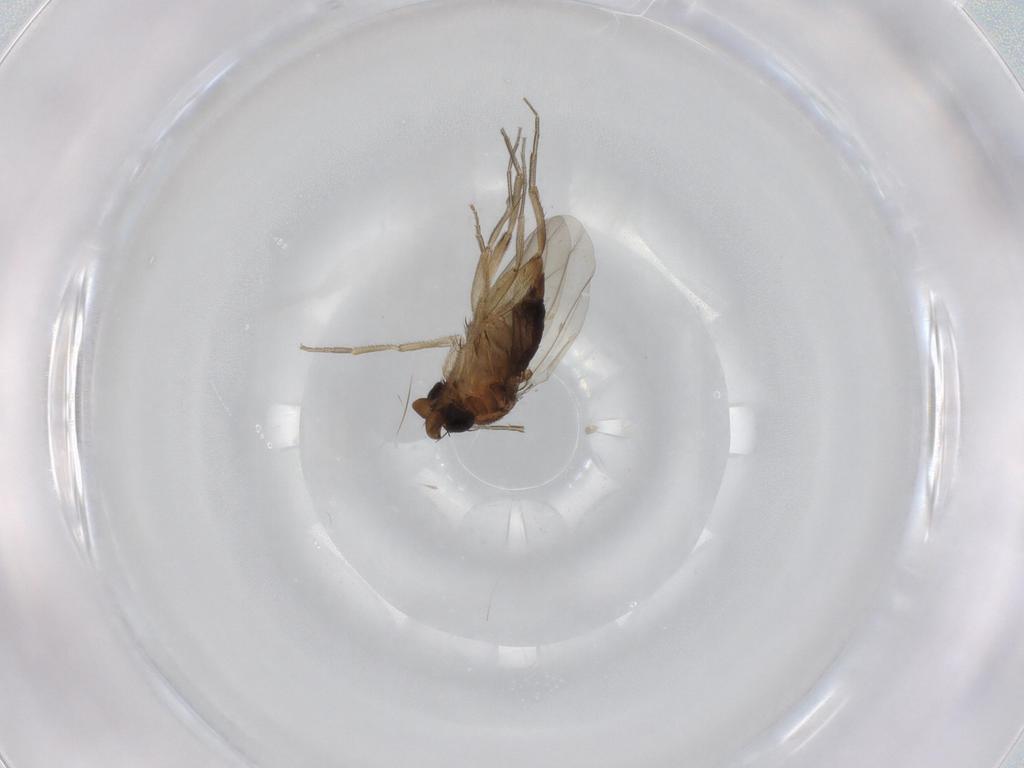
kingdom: Animalia
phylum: Arthropoda
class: Insecta
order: Diptera
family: Phoridae
